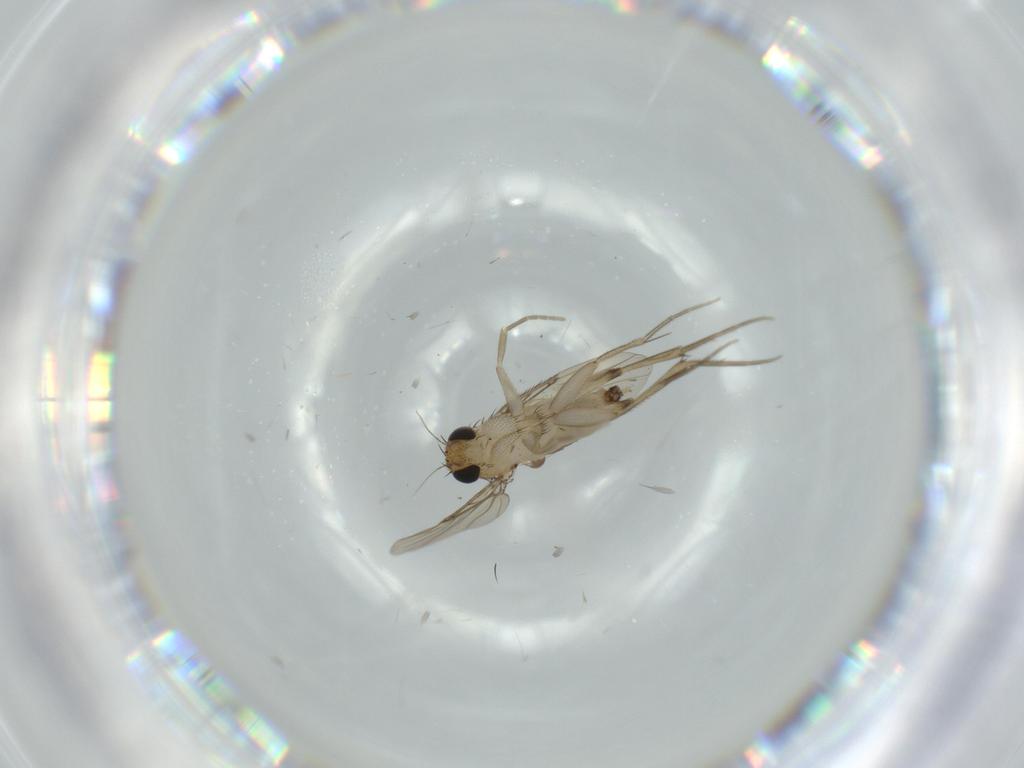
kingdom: Animalia
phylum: Arthropoda
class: Insecta
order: Diptera
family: Phoridae
